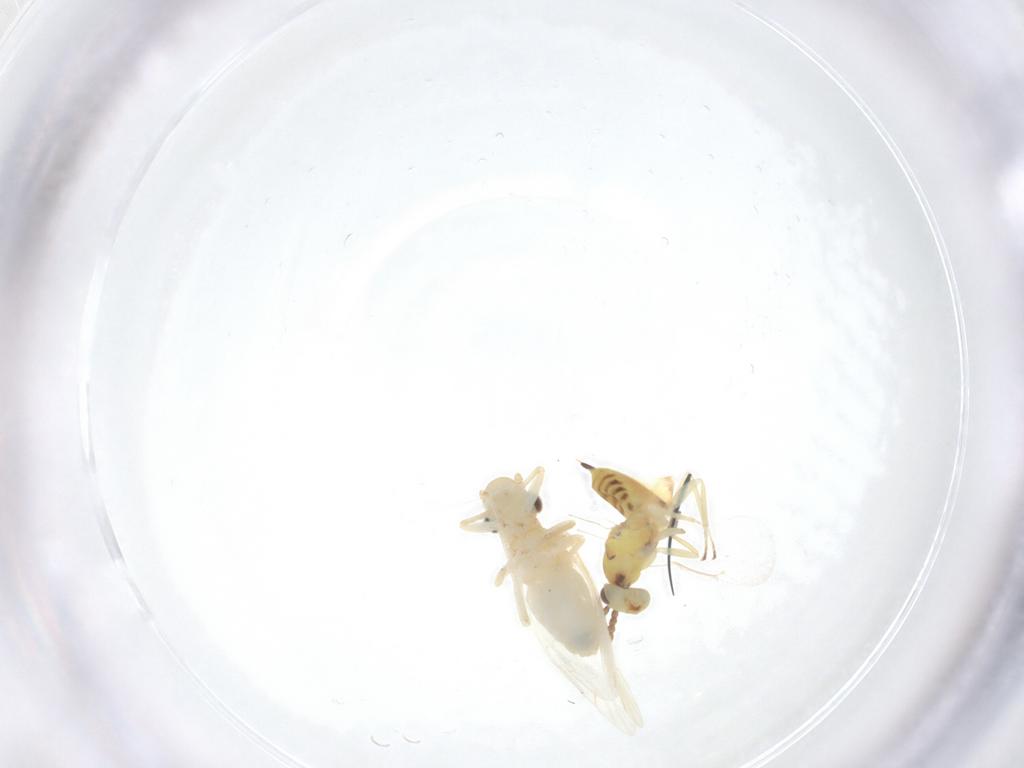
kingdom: Animalia
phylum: Arthropoda
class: Insecta
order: Hymenoptera
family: Eulophidae
